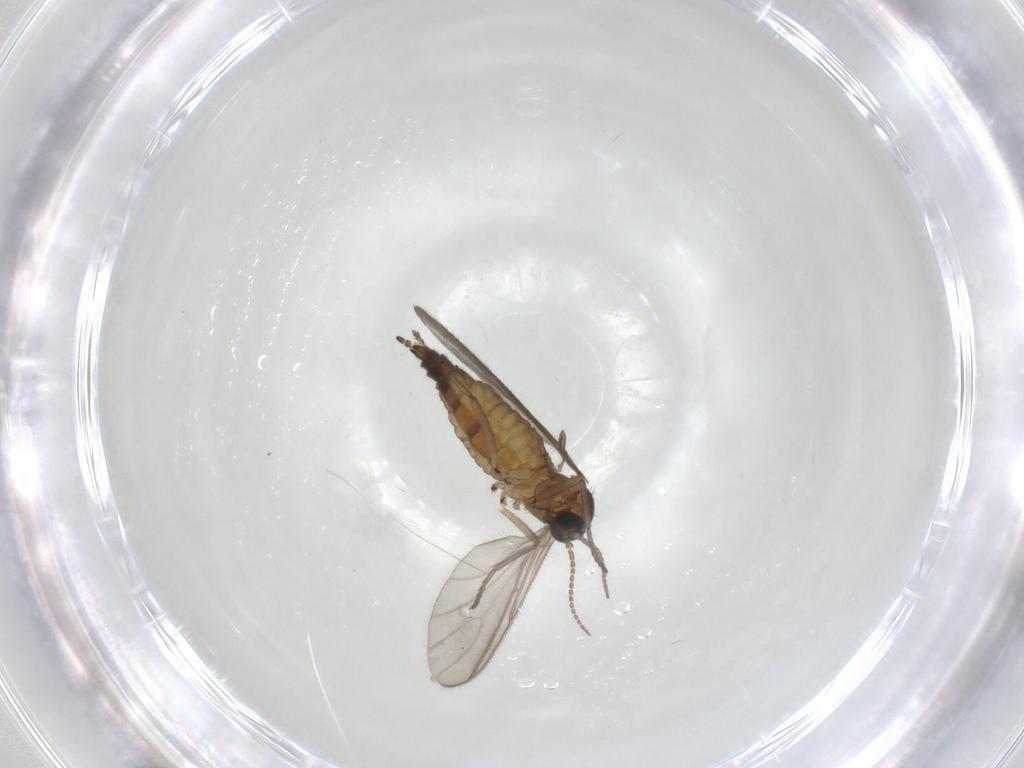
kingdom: Animalia
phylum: Arthropoda
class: Insecta
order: Diptera
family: Sciaridae
